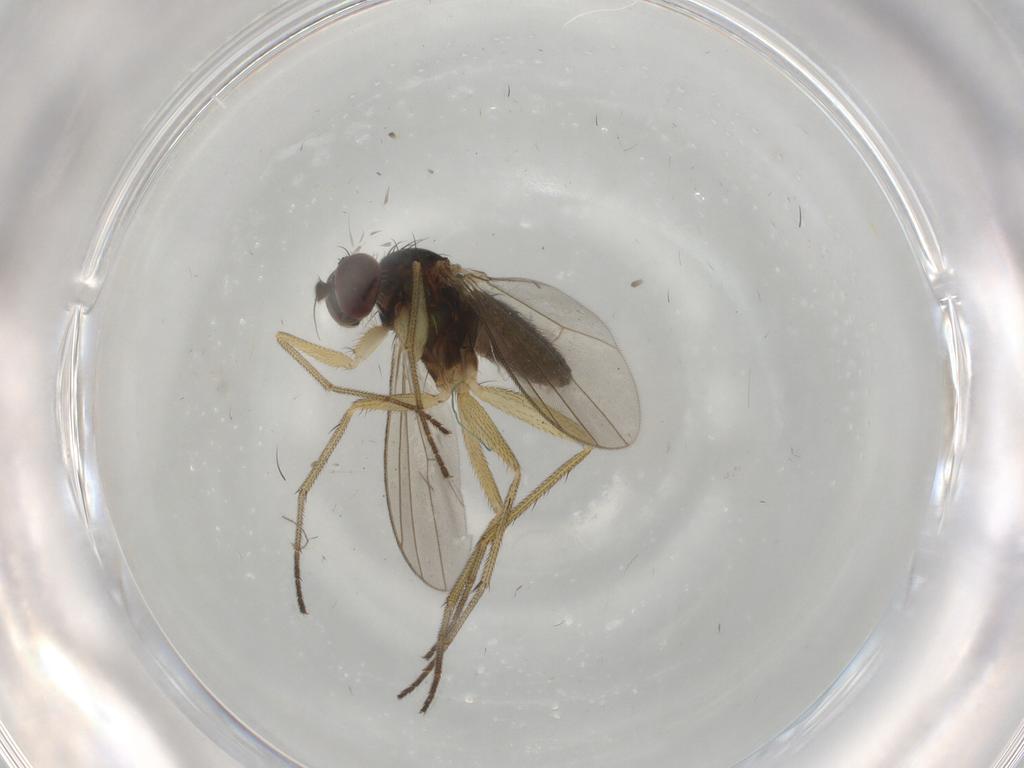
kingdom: Animalia
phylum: Arthropoda
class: Insecta
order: Diptera
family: Dolichopodidae
